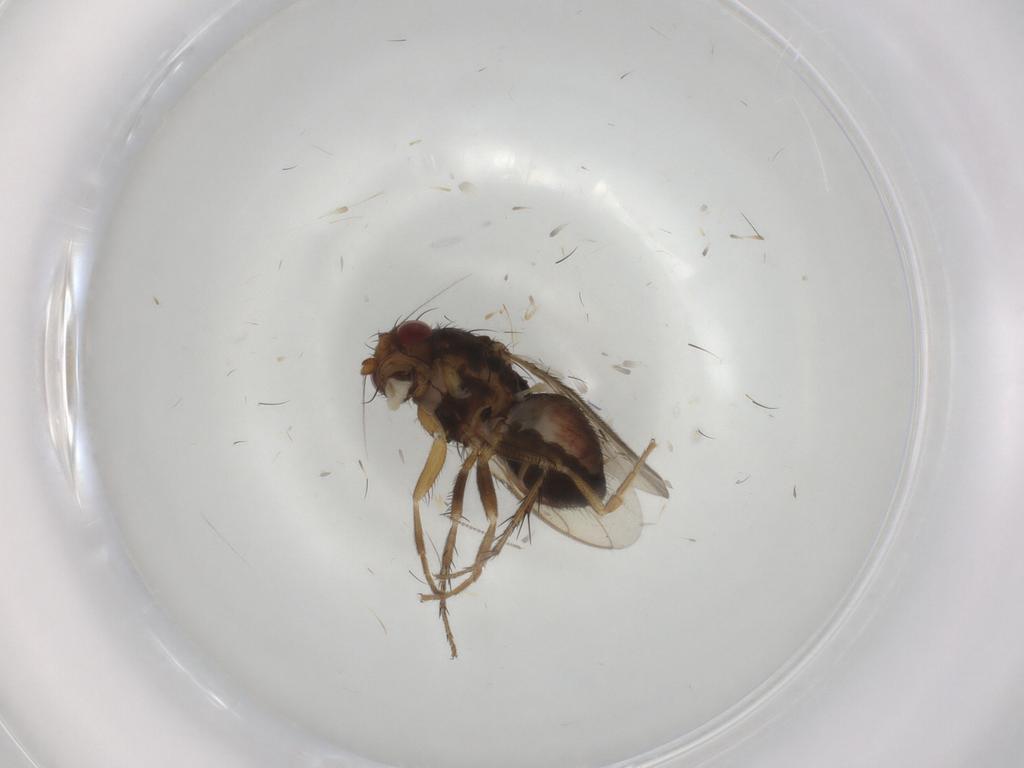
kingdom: Animalia
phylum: Arthropoda
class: Insecta
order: Diptera
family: Sphaeroceridae
